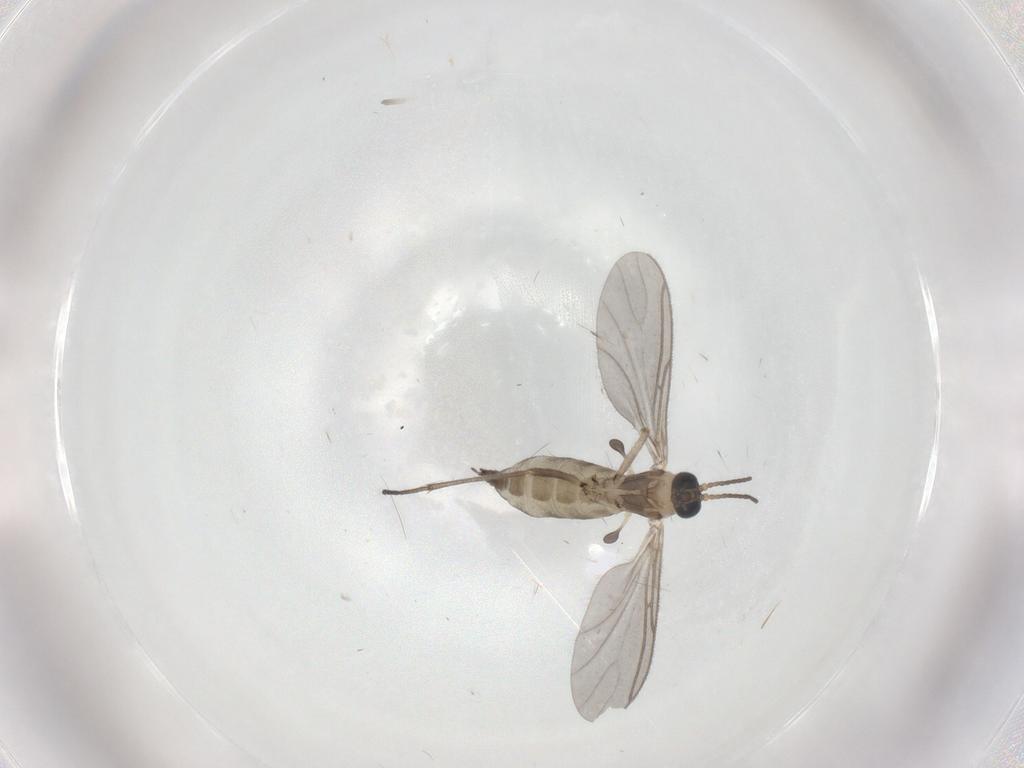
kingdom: Animalia
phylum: Arthropoda
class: Insecta
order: Diptera
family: Sciaridae
